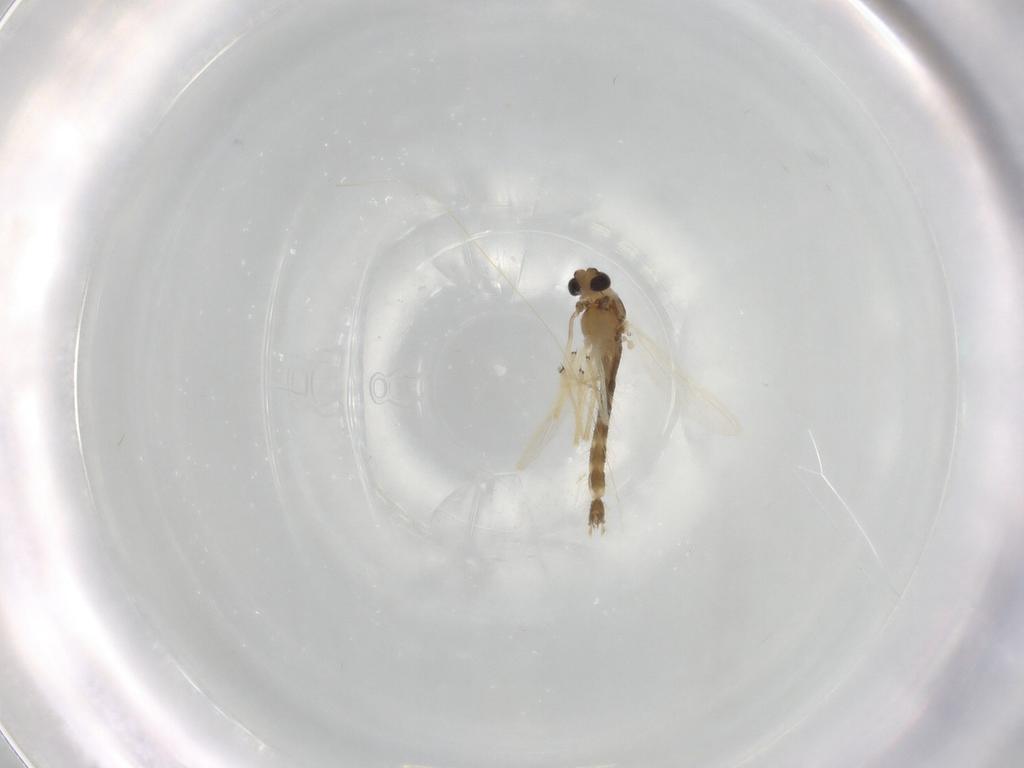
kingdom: Animalia
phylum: Arthropoda
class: Insecta
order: Diptera
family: Chironomidae
